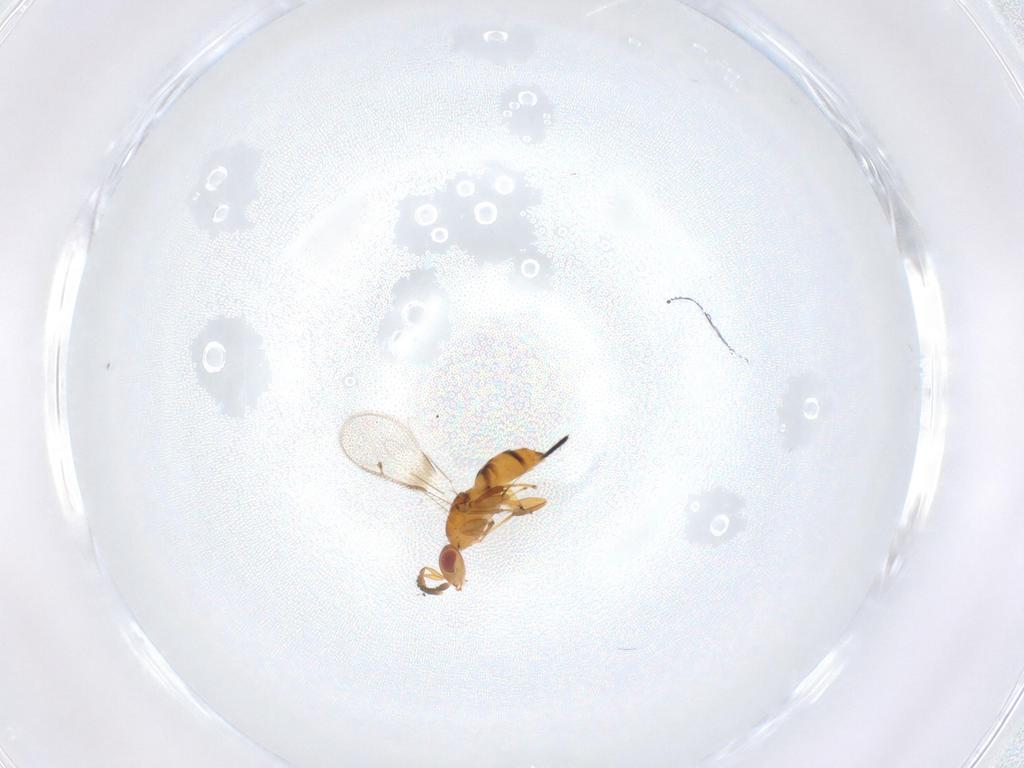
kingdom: Animalia
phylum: Arthropoda
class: Insecta
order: Hymenoptera
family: Torymidae
